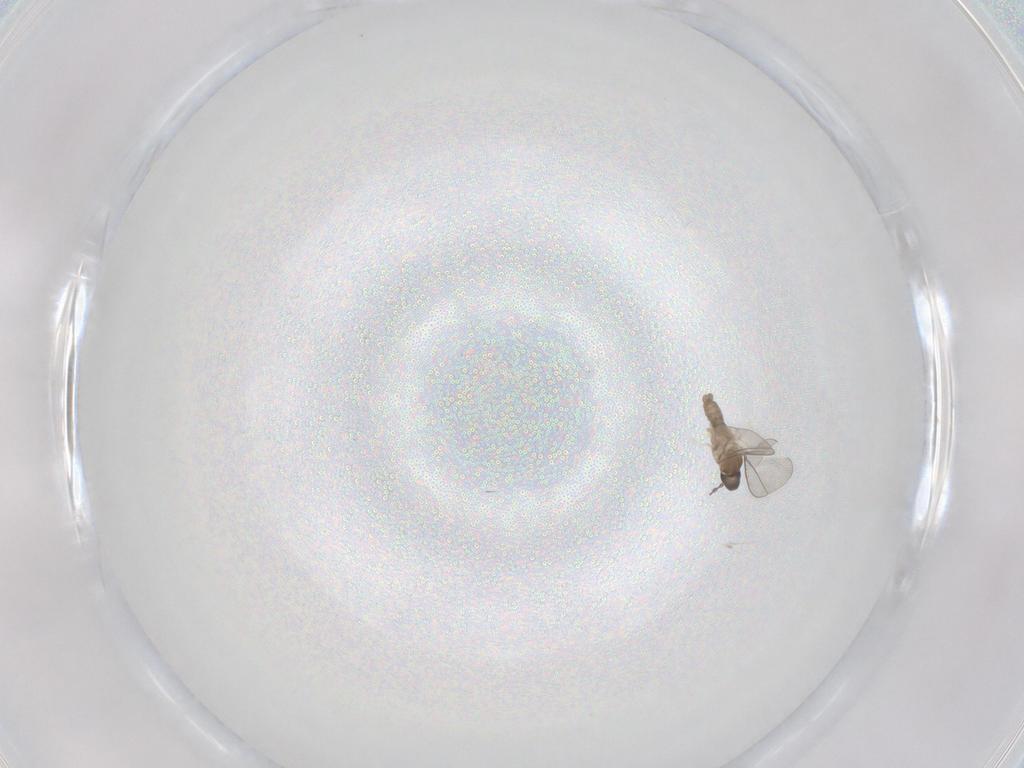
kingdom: Animalia
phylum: Arthropoda
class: Insecta
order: Diptera
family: Cecidomyiidae
